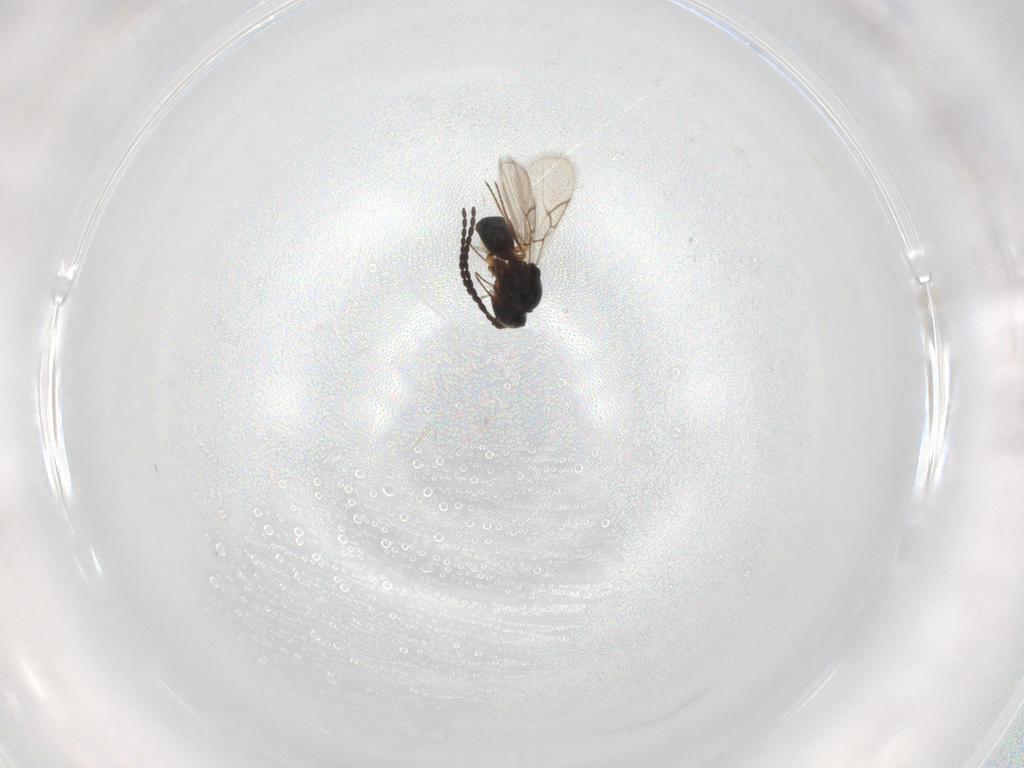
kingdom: Animalia
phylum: Arthropoda
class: Insecta
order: Hymenoptera
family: Figitidae
